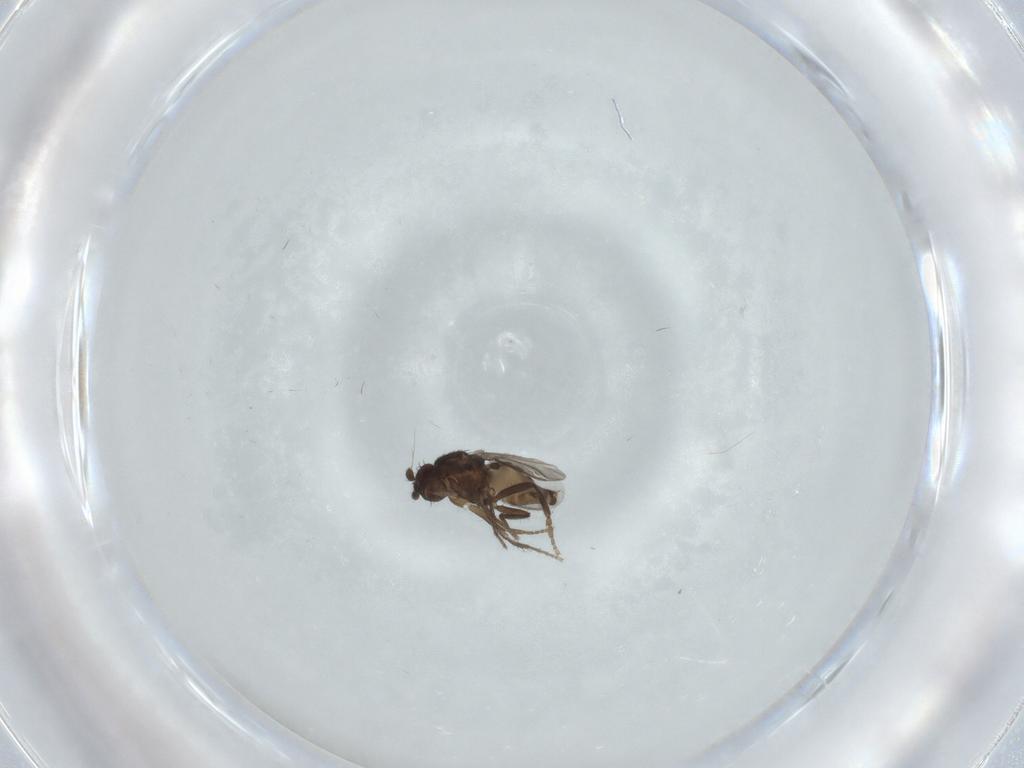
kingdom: Animalia
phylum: Arthropoda
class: Insecta
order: Diptera
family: Sphaeroceridae
